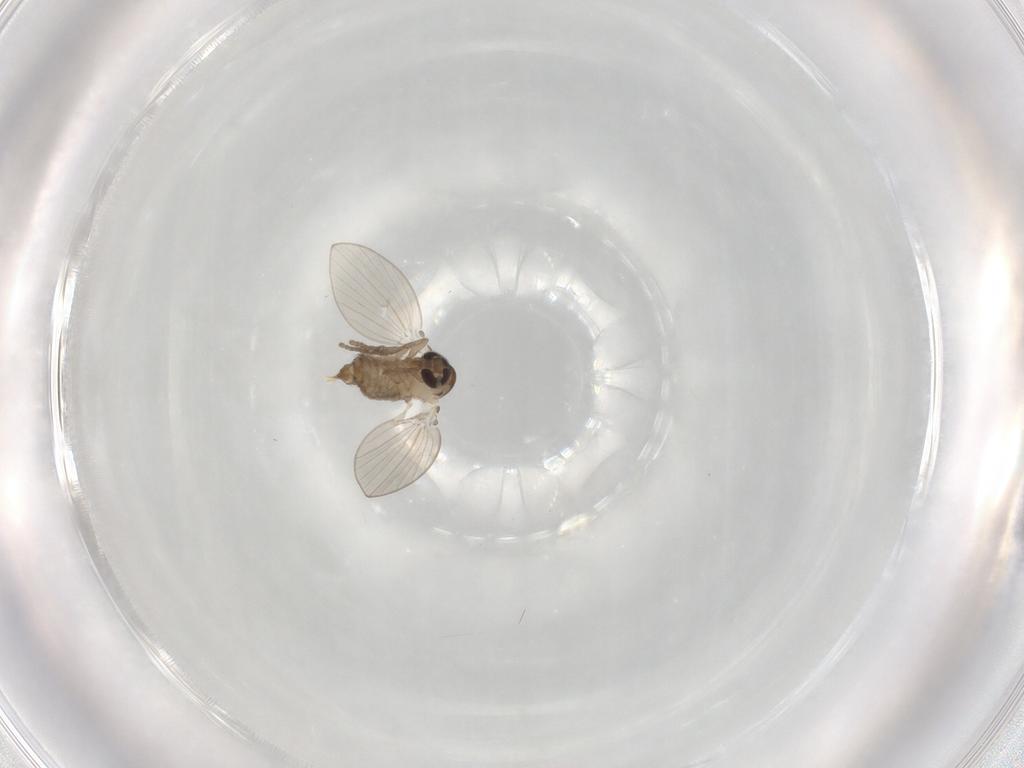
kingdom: Animalia
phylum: Arthropoda
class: Insecta
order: Diptera
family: Psychodidae
